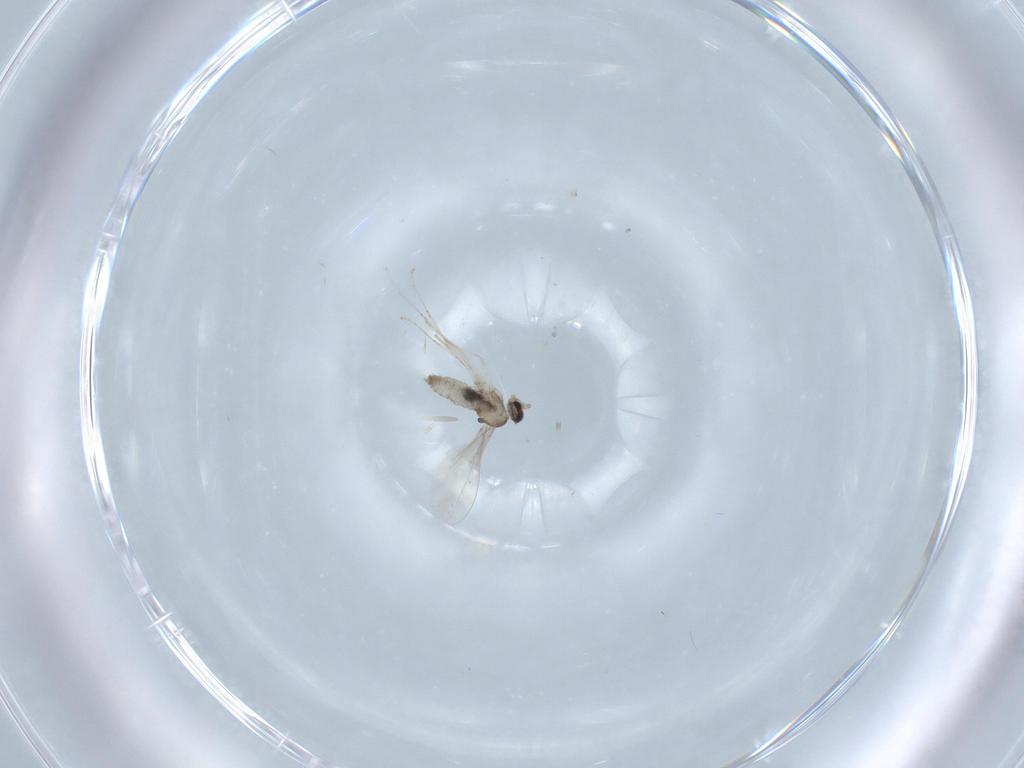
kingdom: Animalia
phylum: Arthropoda
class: Insecta
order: Diptera
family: Cecidomyiidae
